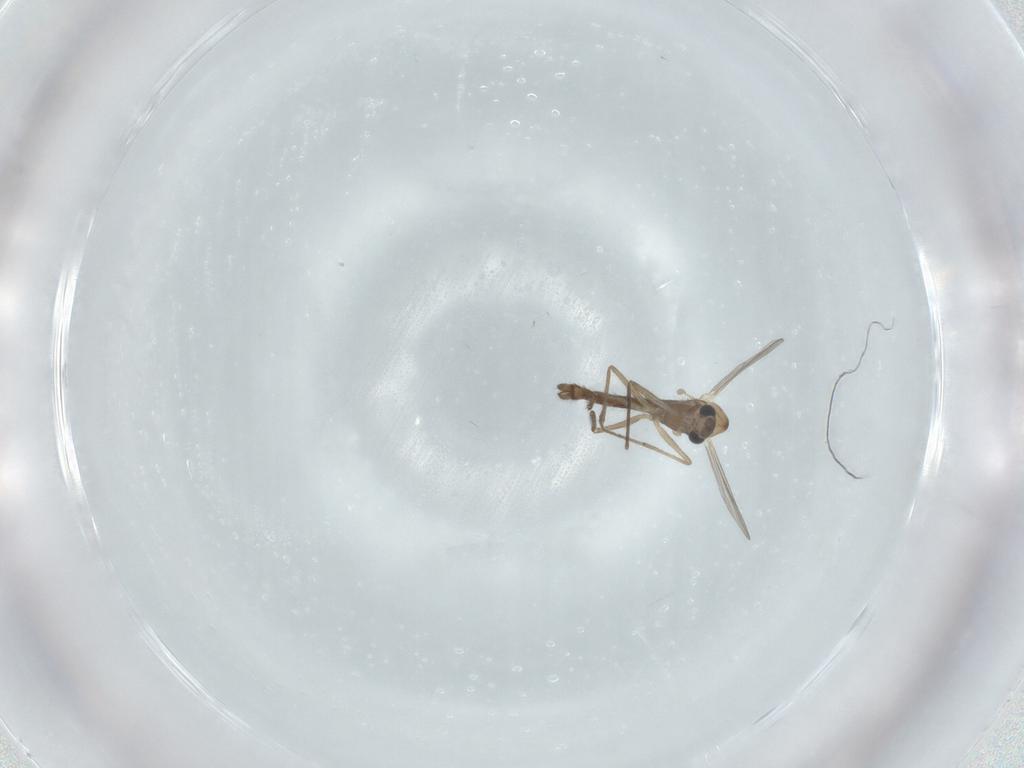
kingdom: Animalia
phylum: Arthropoda
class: Insecta
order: Diptera
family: Chironomidae
